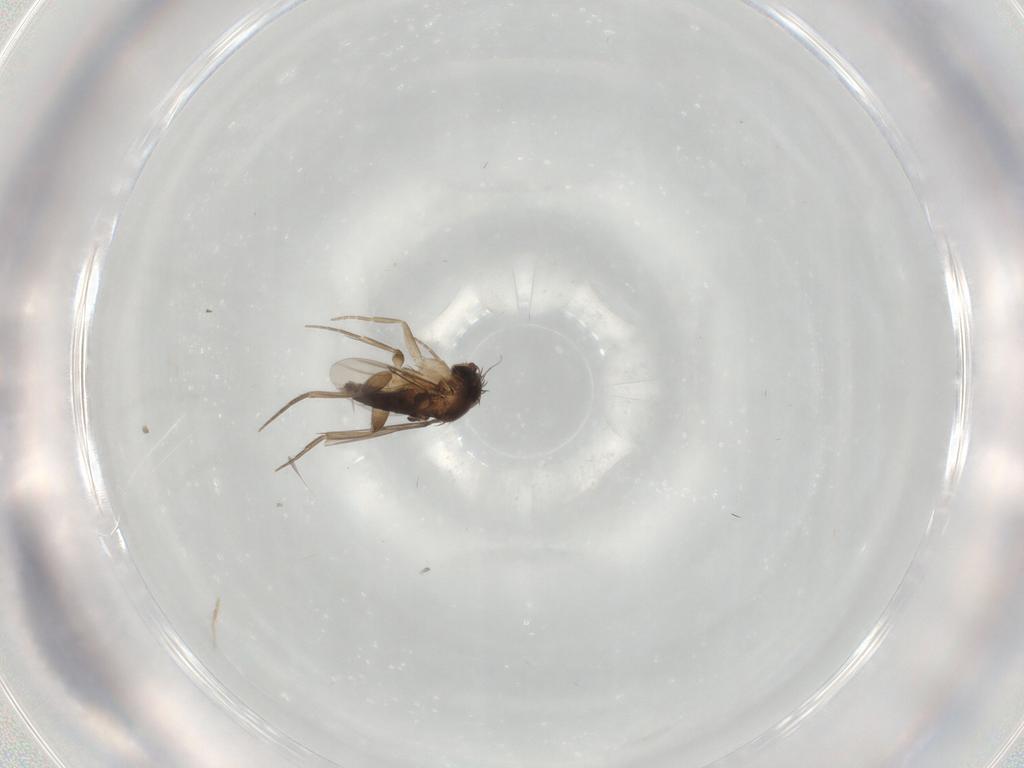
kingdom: Animalia
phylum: Arthropoda
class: Insecta
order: Diptera
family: Phoridae
